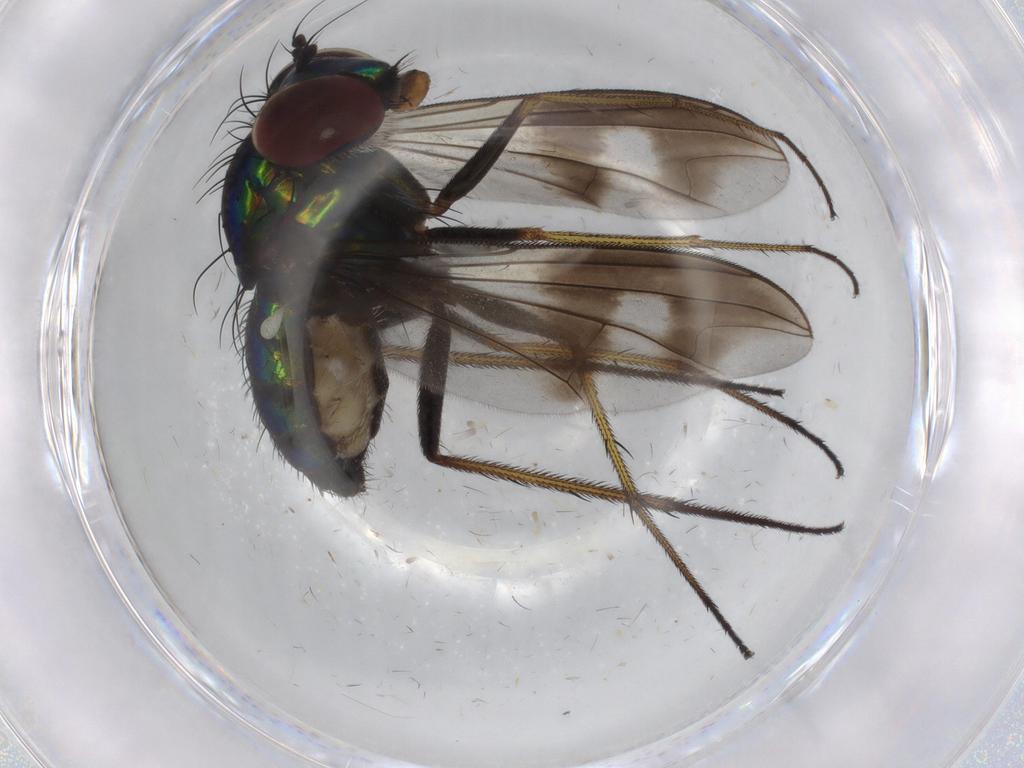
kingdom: Animalia
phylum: Arthropoda
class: Insecta
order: Diptera
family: Dolichopodidae
